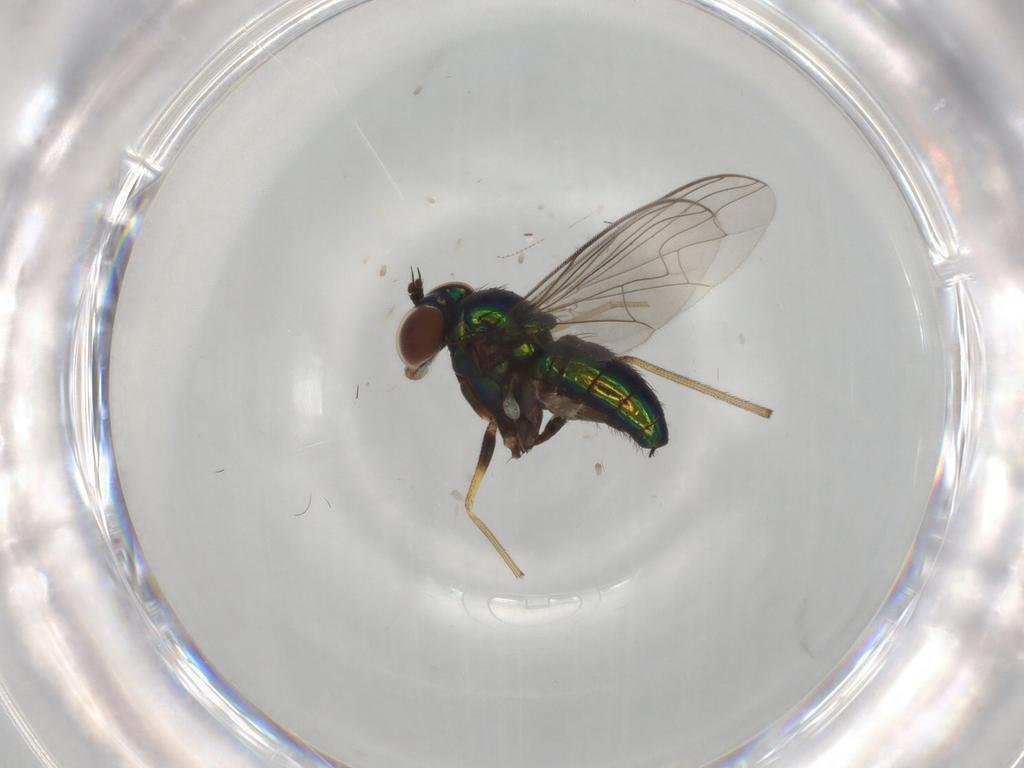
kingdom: Animalia
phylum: Arthropoda
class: Insecta
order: Diptera
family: Dolichopodidae
